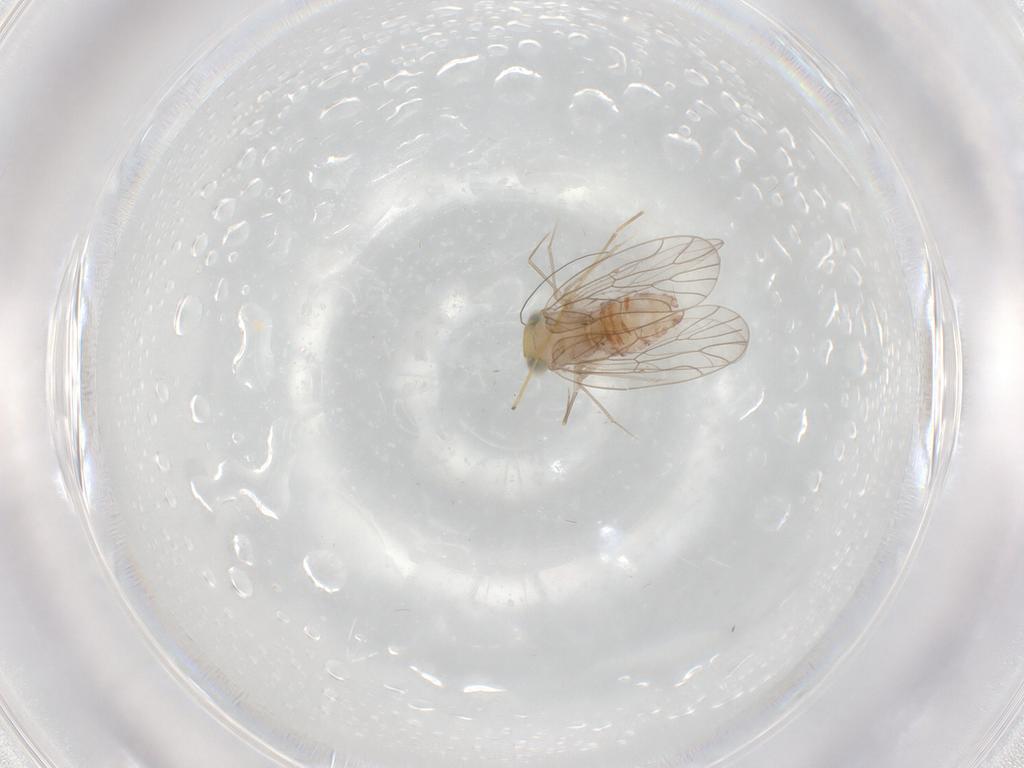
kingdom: Animalia
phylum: Arthropoda
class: Insecta
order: Psocodea
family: Amphientomidae
